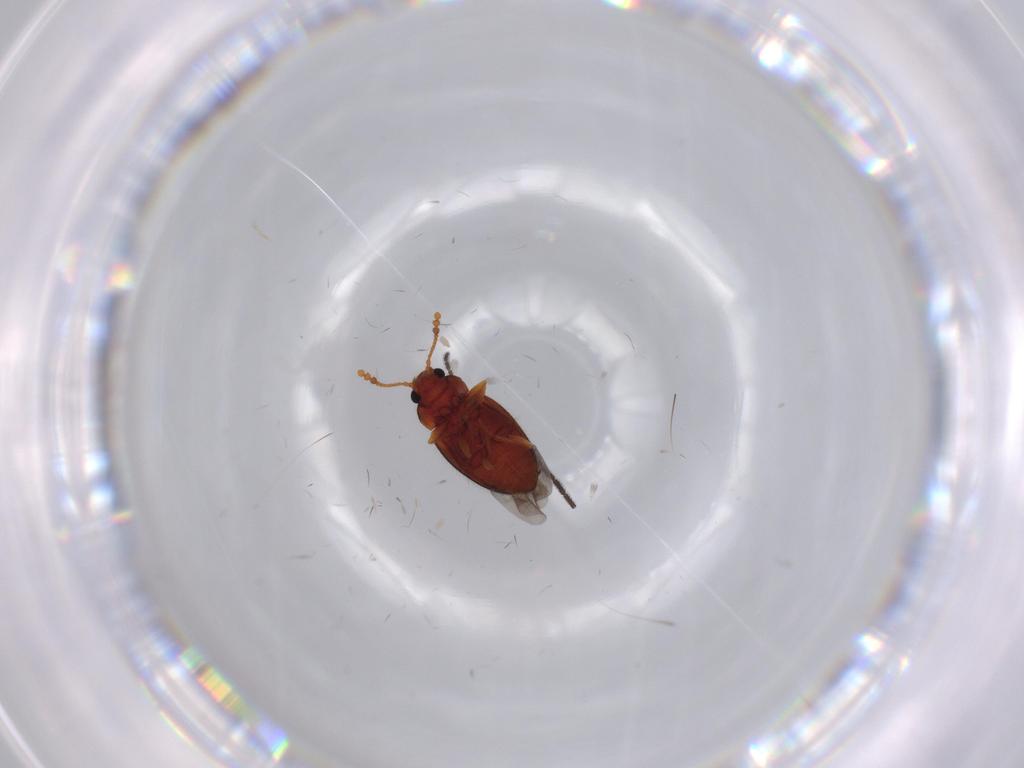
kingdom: Animalia
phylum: Arthropoda
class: Insecta
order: Coleoptera
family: Erotylidae
